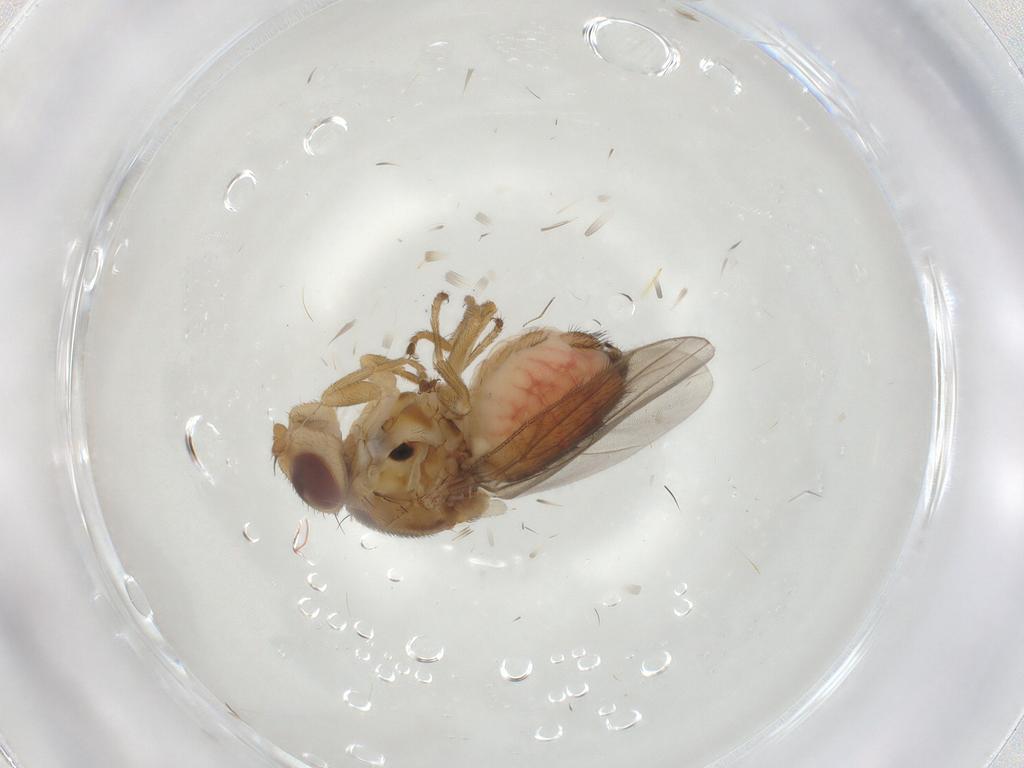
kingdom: Animalia
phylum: Arthropoda
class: Insecta
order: Diptera
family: Chloropidae
